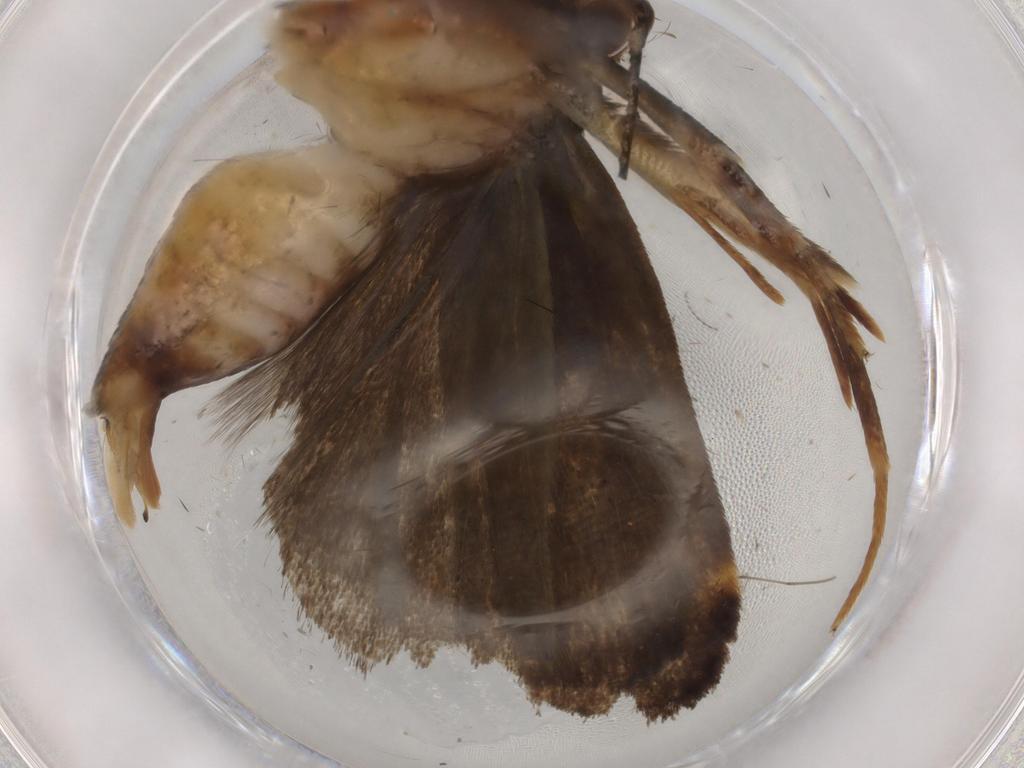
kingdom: Animalia
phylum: Arthropoda
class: Insecta
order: Lepidoptera
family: Gelechiidae
